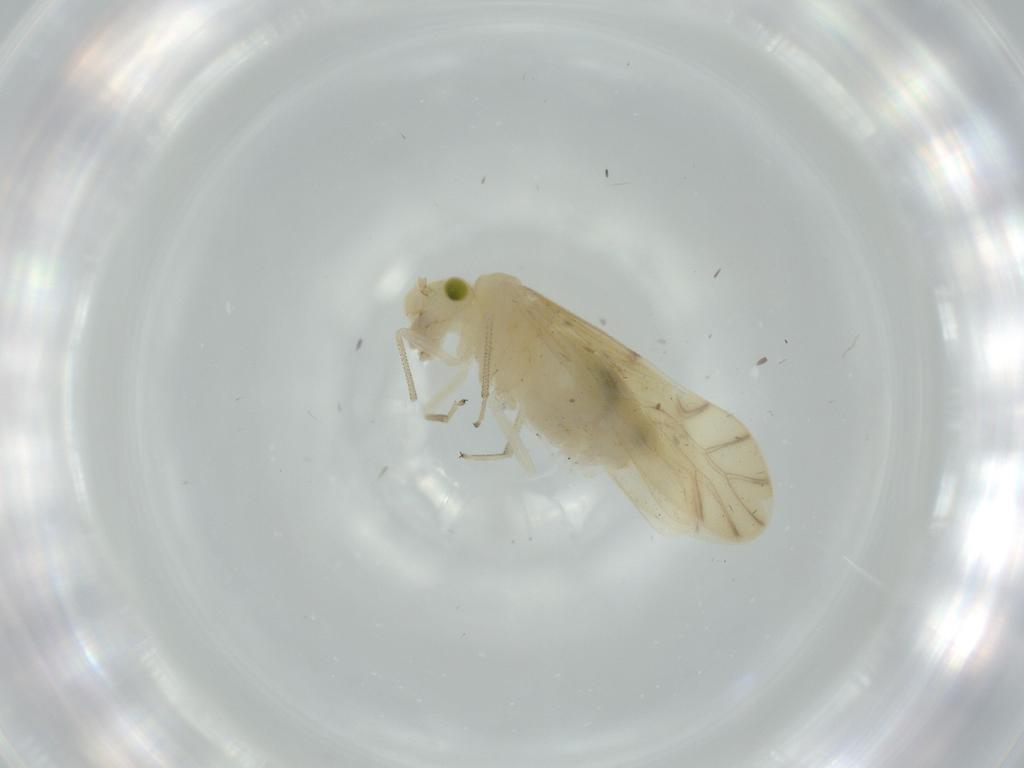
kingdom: Animalia
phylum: Arthropoda
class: Insecta
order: Psocodea
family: Caeciliusidae
